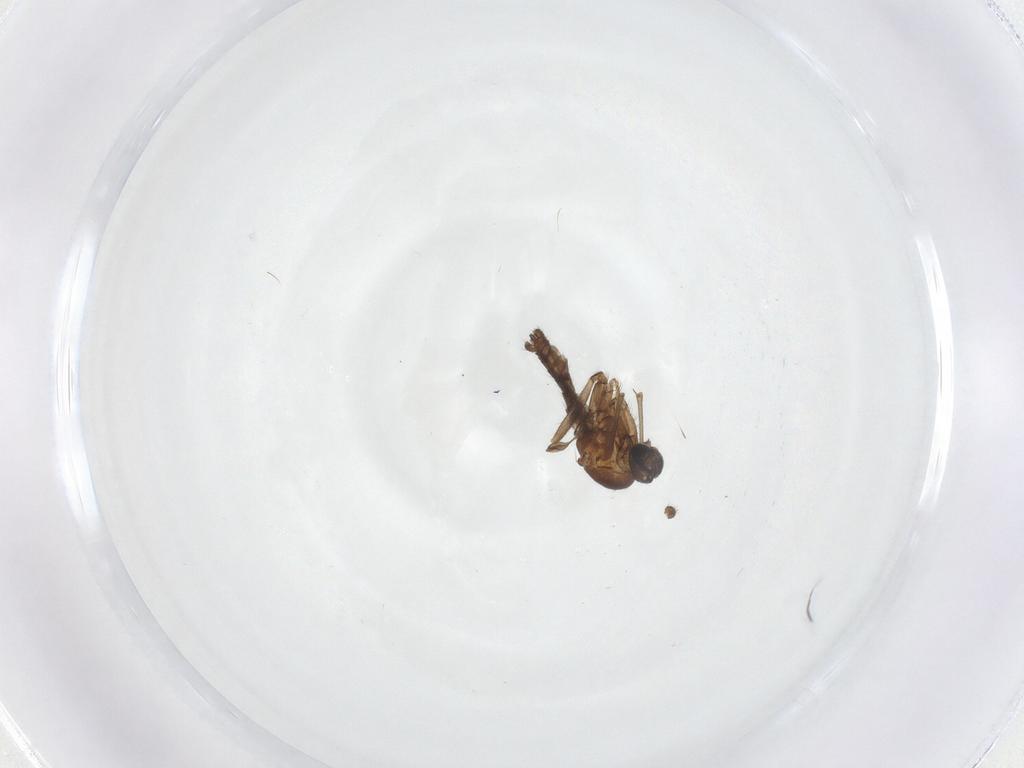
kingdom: Animalia
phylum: Arthropoda
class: Insecta
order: Diptera
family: Sciaridae
